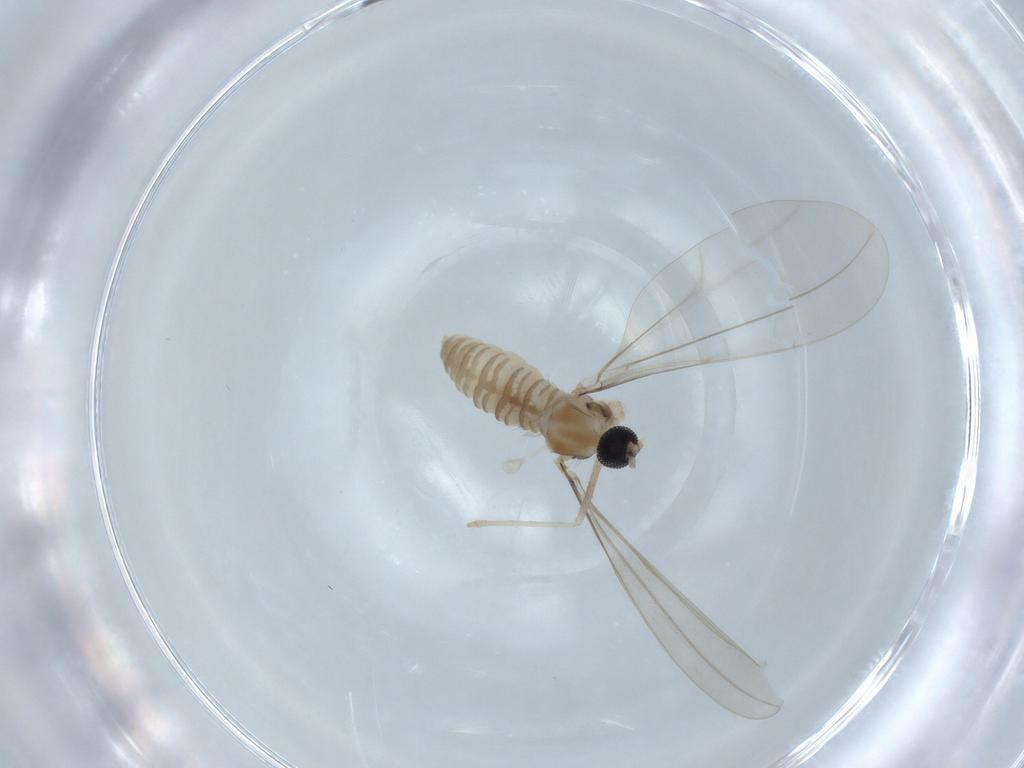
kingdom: Animalia
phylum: Arthropoda
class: Insecta
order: Diptera
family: Cecidomyiidae
